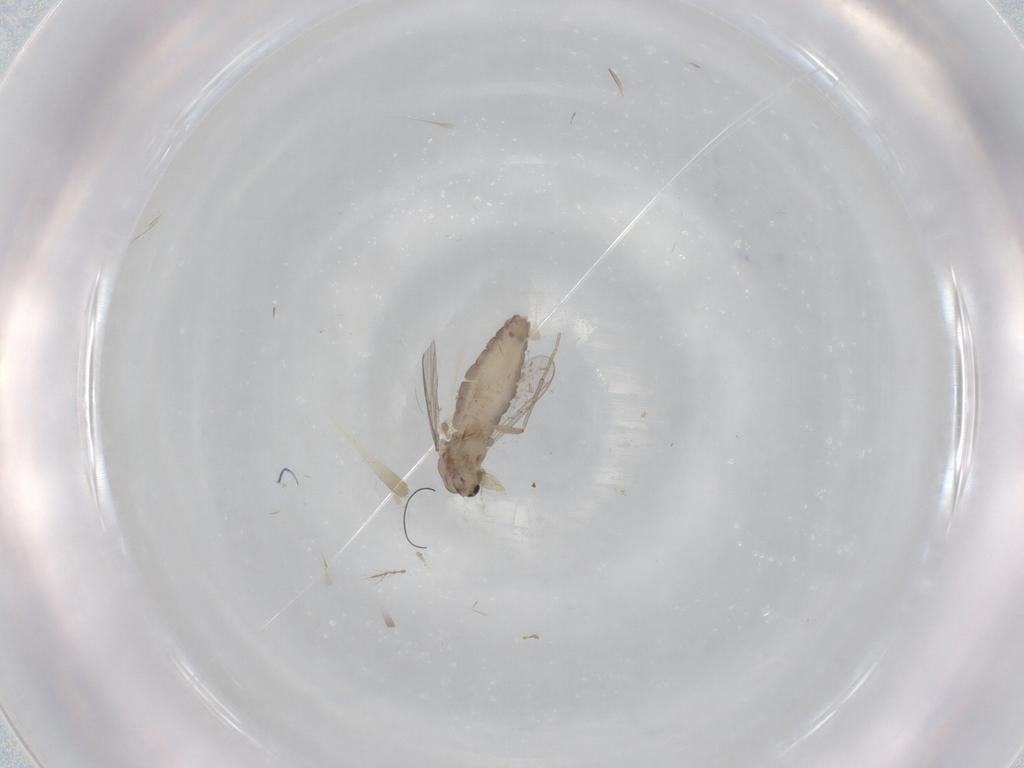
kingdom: Animalia
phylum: Arthropoda
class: Insecta
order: Diptera
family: Chironomidae
